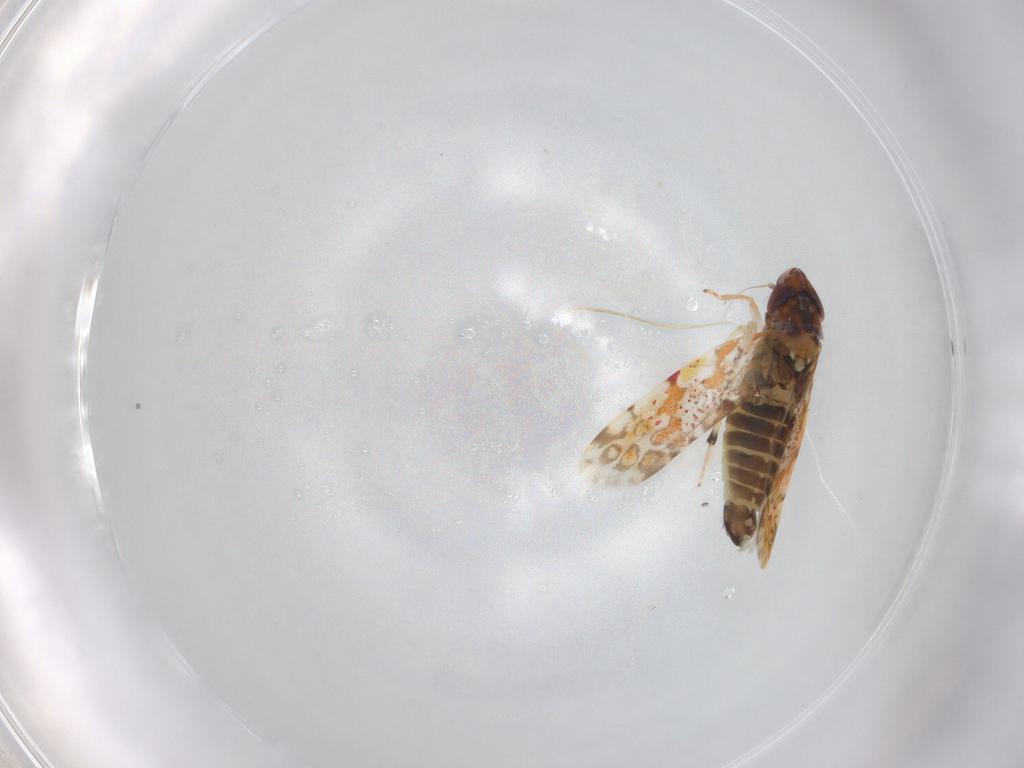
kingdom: Animalia
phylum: Arthropoda
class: Insecta
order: Hemiptera
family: Cicadellidae
